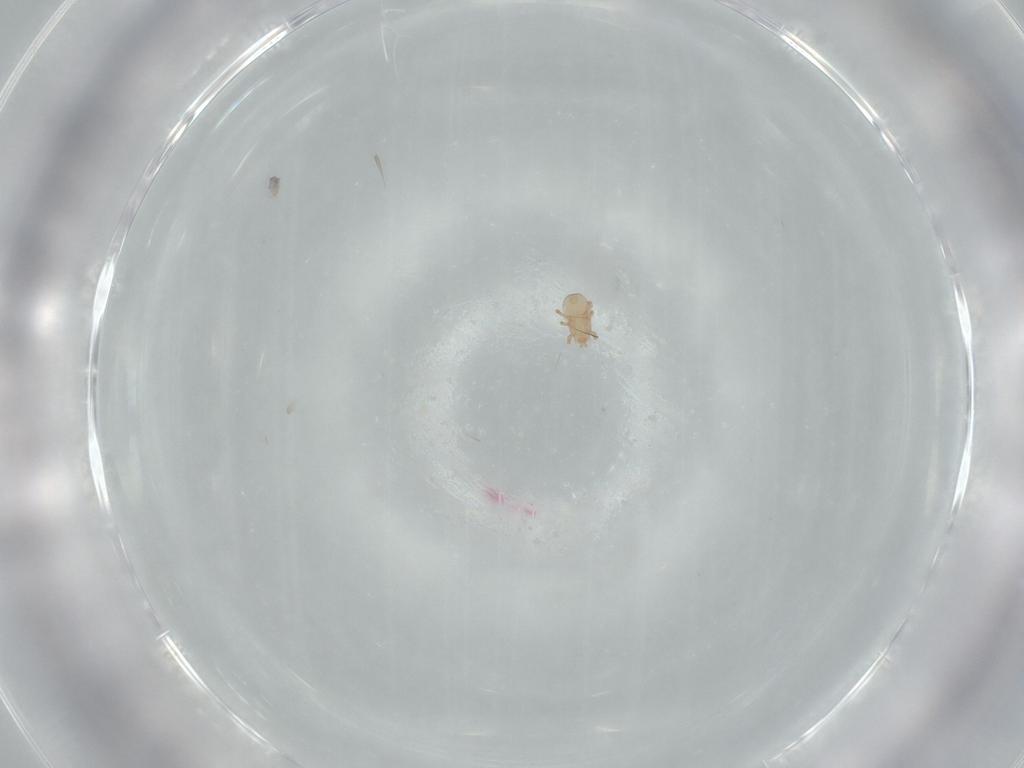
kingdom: Animalia
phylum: Arthropoda
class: Arachnida
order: Mesostigmata
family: Ascidae
